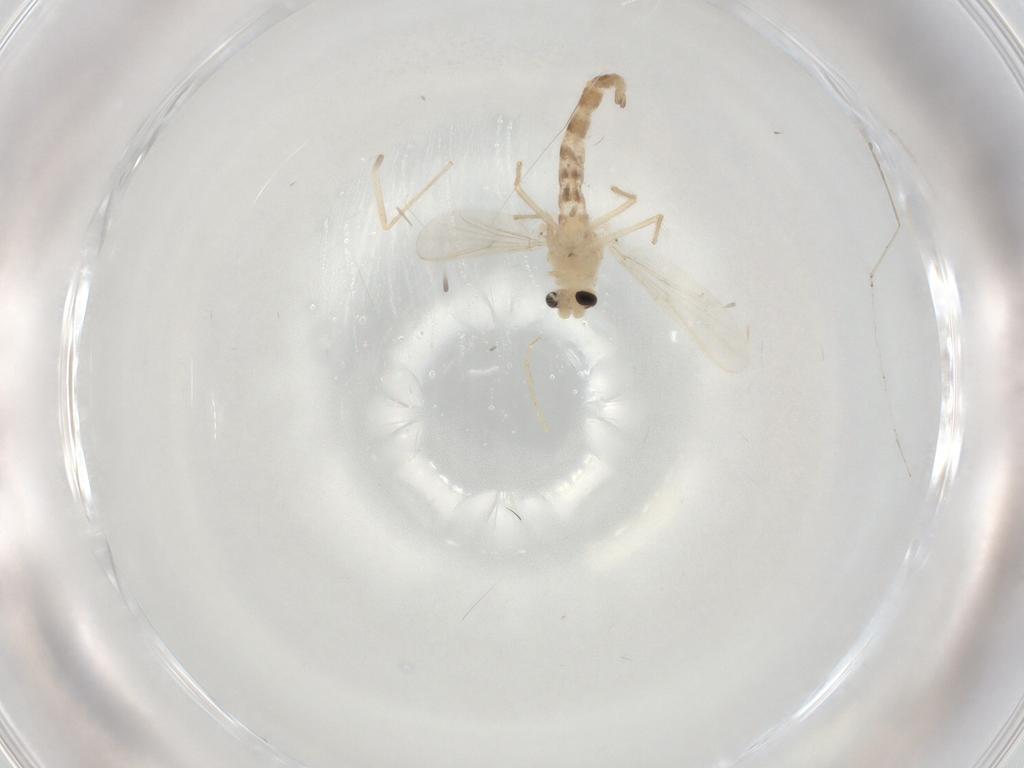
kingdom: Animalia
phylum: Arthropoda
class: Insecta
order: Diptera
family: Chironomidae
